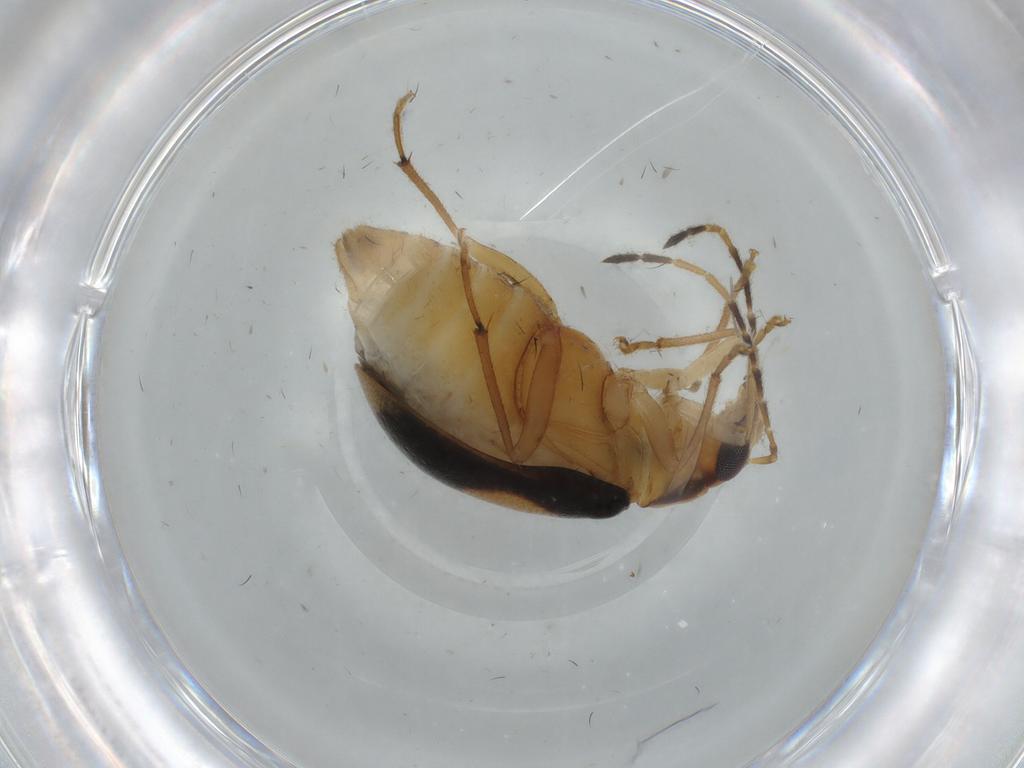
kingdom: Animalia
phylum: Arthropoda
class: Insecta
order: Coleoptera
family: Chrysomelidae
